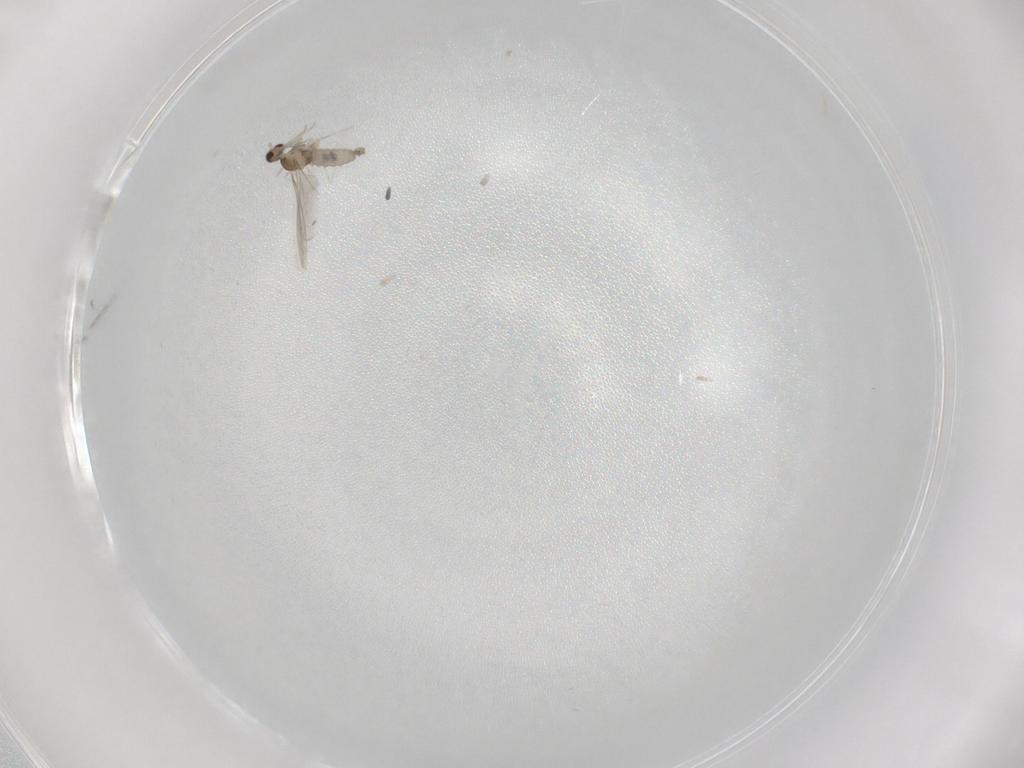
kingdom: Animalia
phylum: Arthropoda
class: Insecta
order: Diptera
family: Cecidomyiidae
